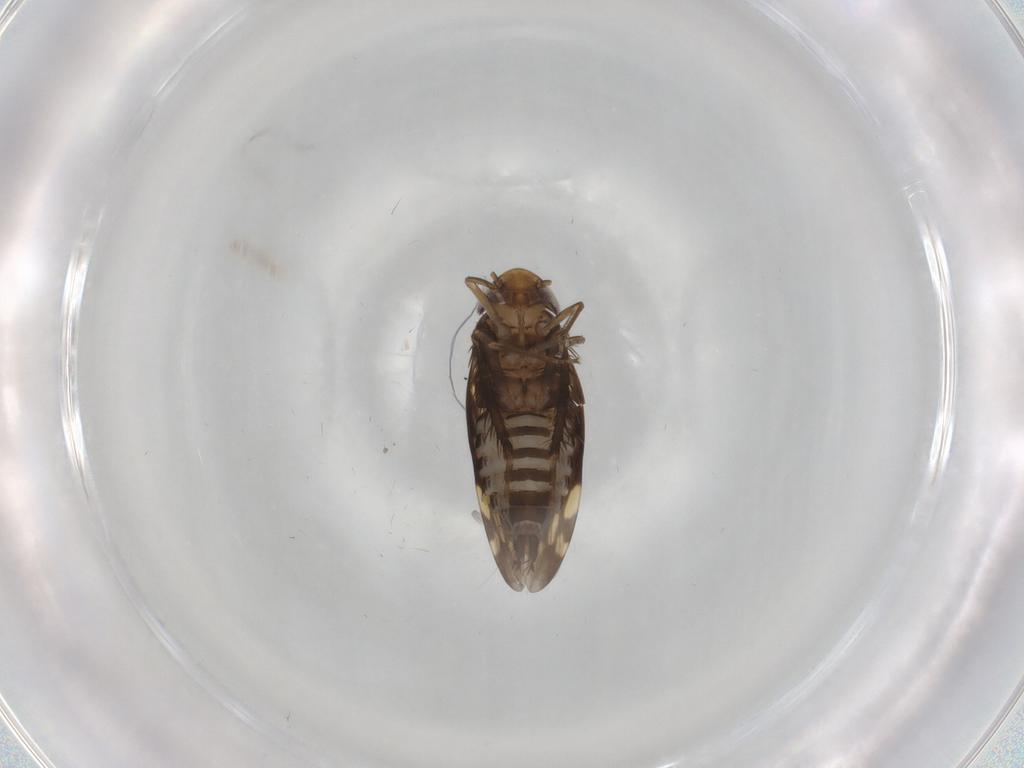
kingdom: Animalia
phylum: Arthropoda
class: Insecta
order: Hemiptera
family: Cicadellidae
